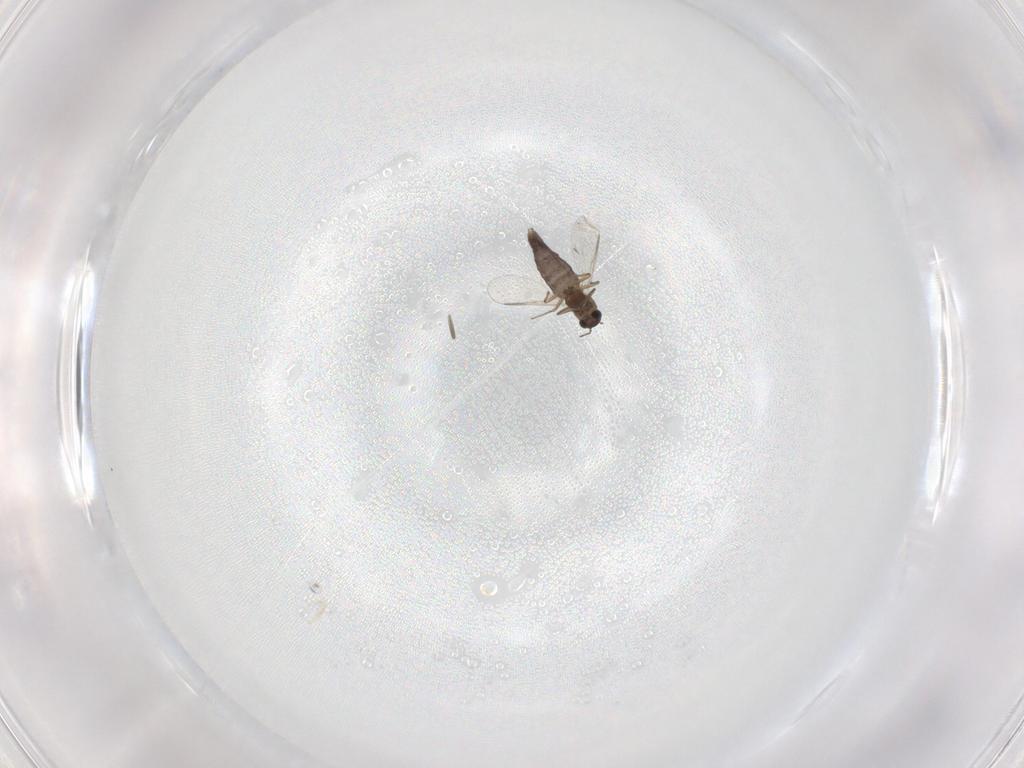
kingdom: Animalia
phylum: Arthropoda
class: Insecta
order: Diptera
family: Chironomidae
